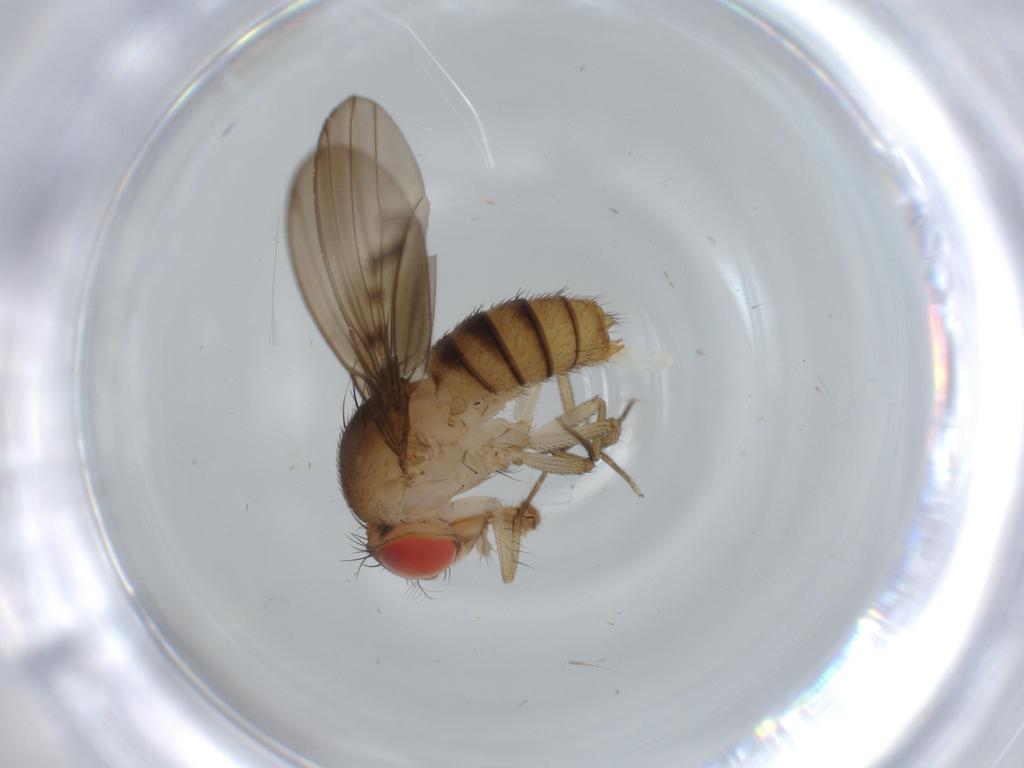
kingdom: Animalia
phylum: Arthropoda
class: Insecta
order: Diptera
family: Drosophilidae
